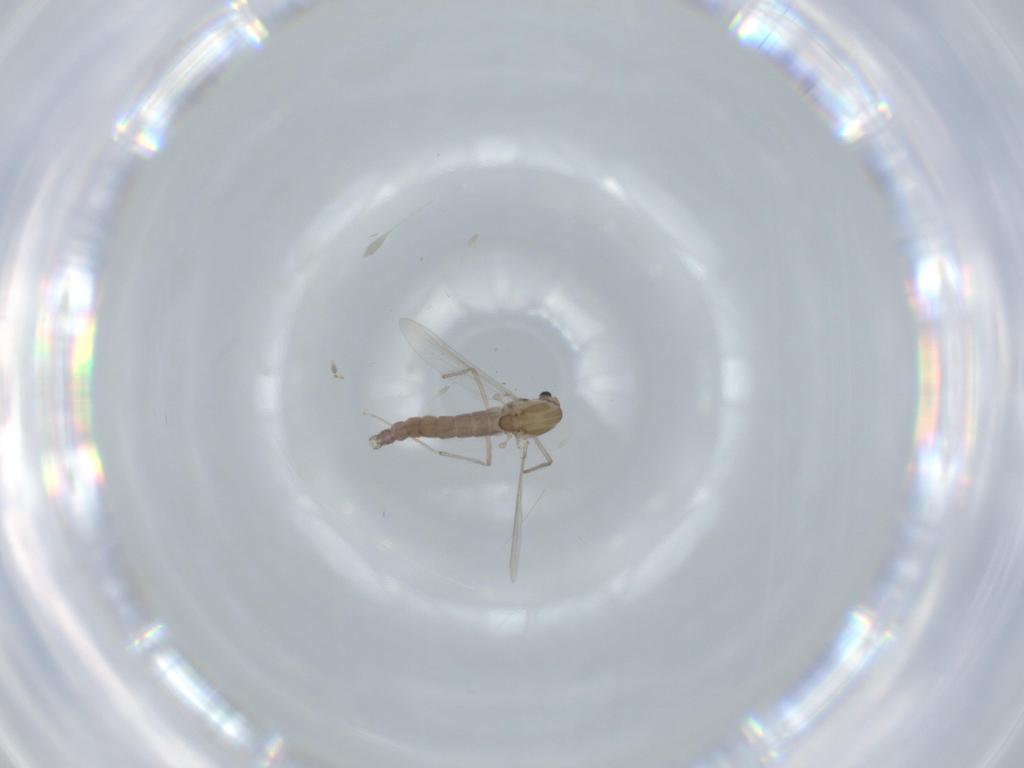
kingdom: Animalia
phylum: Arthropoda
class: Insecta
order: Diptera
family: Chironomidae
